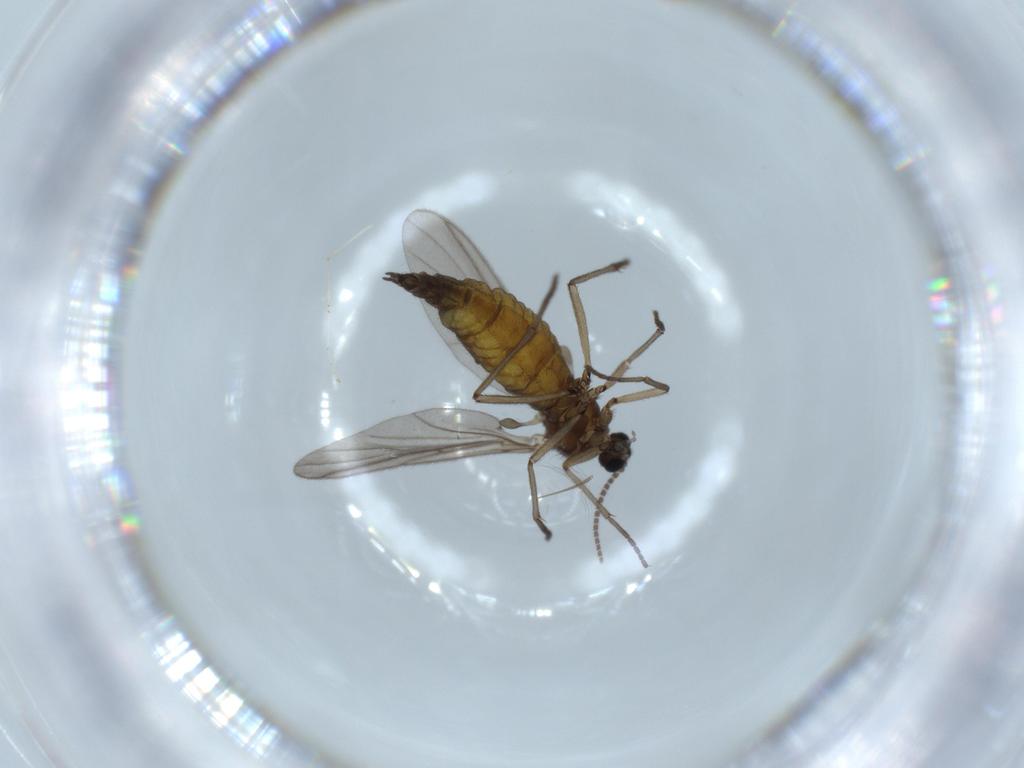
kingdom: Animalia
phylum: Arthropoda
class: Insecta
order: Diptera
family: Sciaridae
